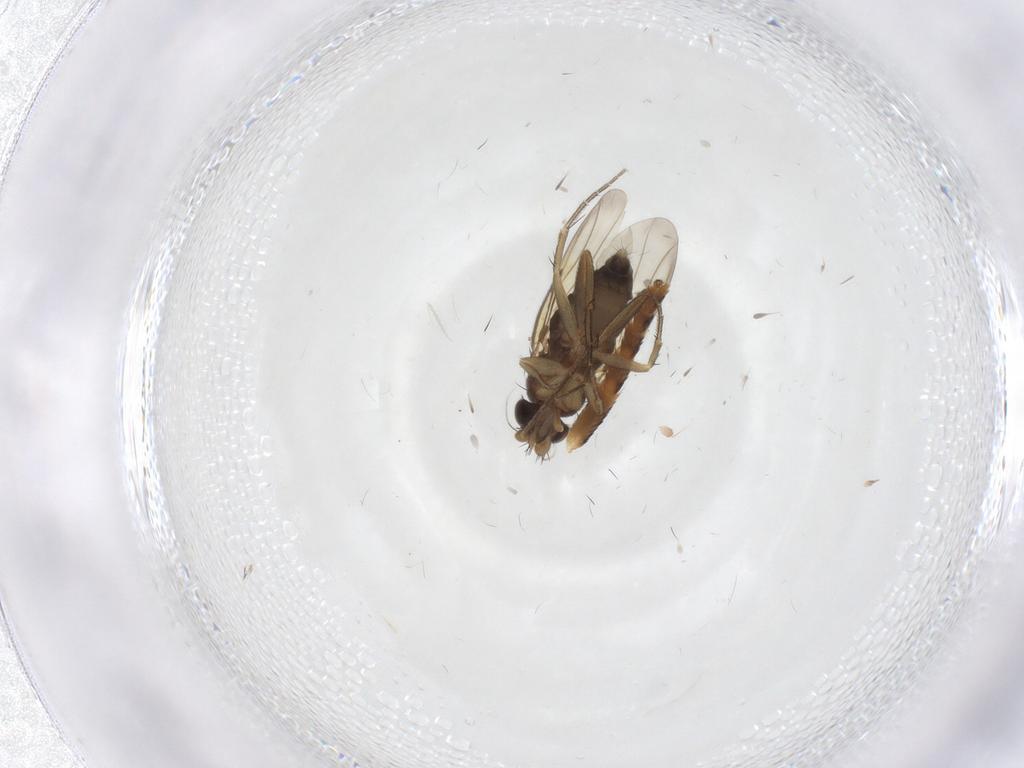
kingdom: Animalia
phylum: Arthropoda
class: Insecta
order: Diptera
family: Phoridae
